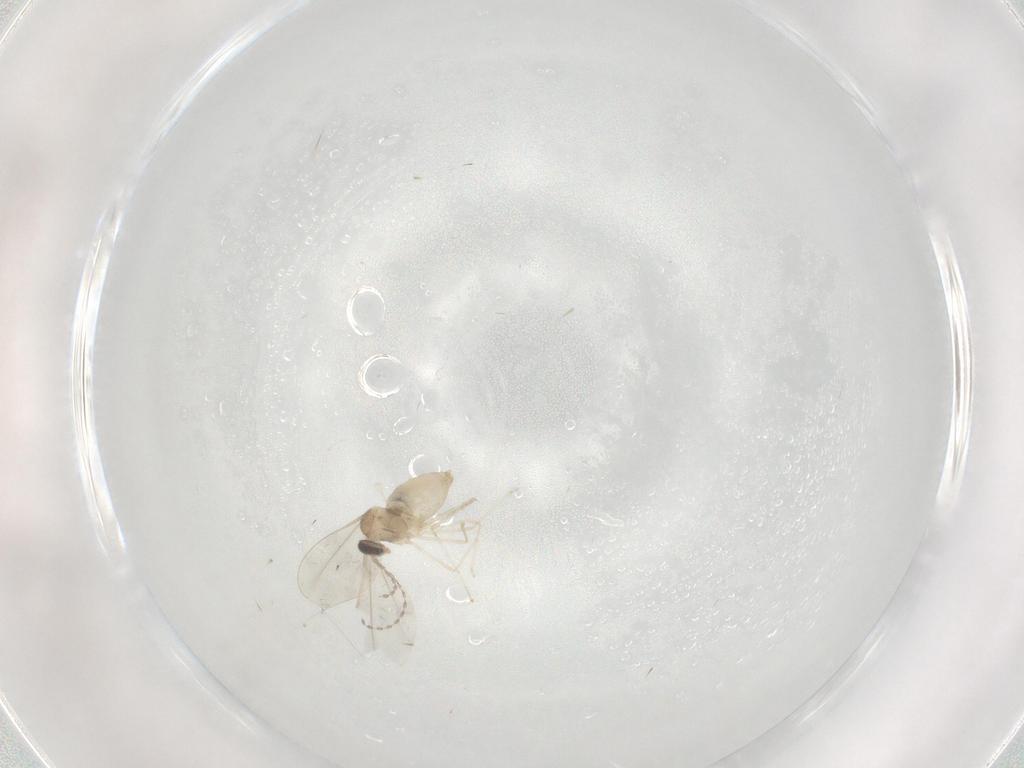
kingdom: Animalia
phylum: Arthropoda
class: Insecta
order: Diptera
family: Chironomidae
